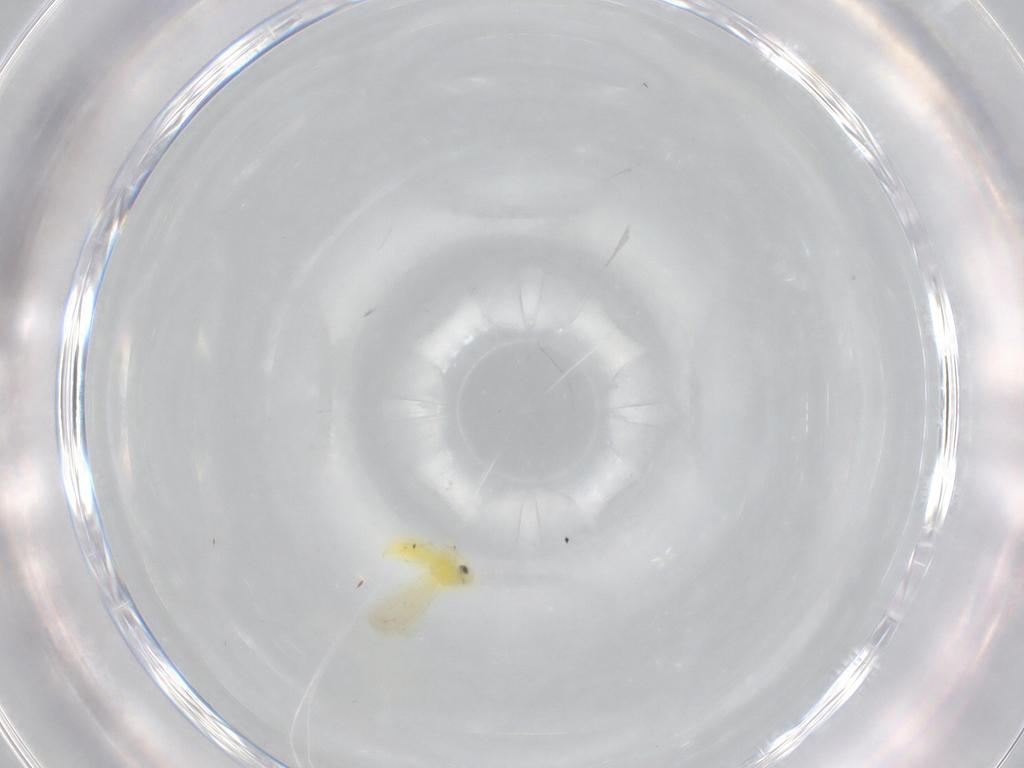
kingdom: Animalia
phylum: Arthropoda
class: Insecta
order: Hemiptera
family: Aleyrodidae
